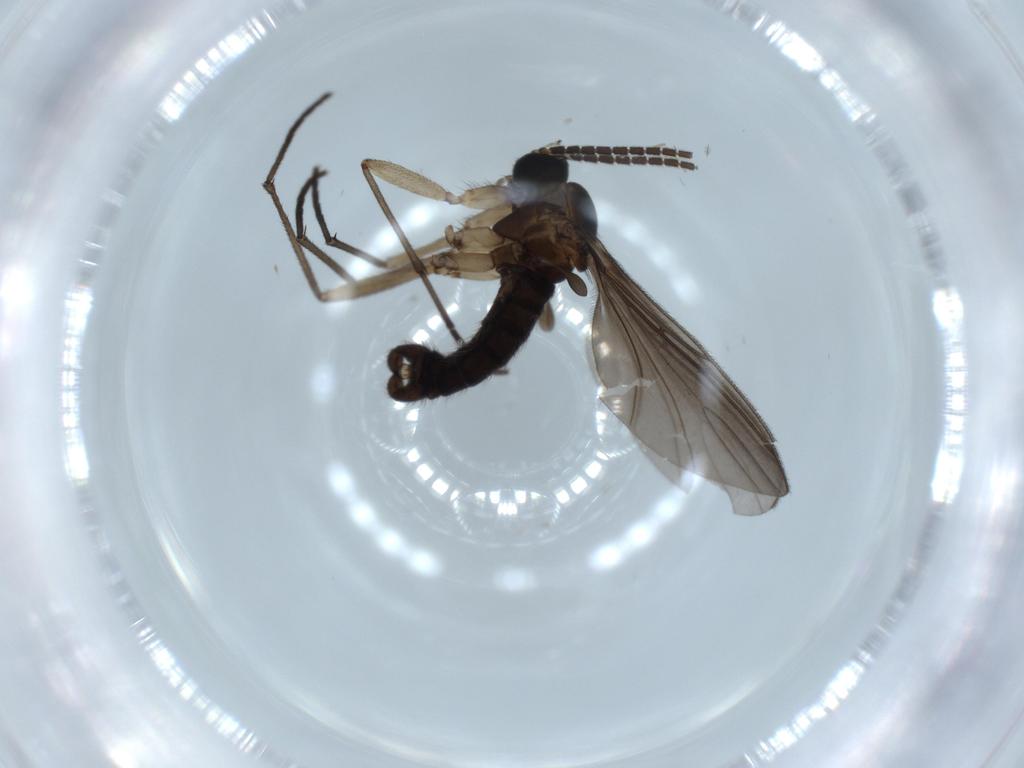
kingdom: Animalia
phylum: Arthropoda
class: Insecta
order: Diptera
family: Sciaridae
